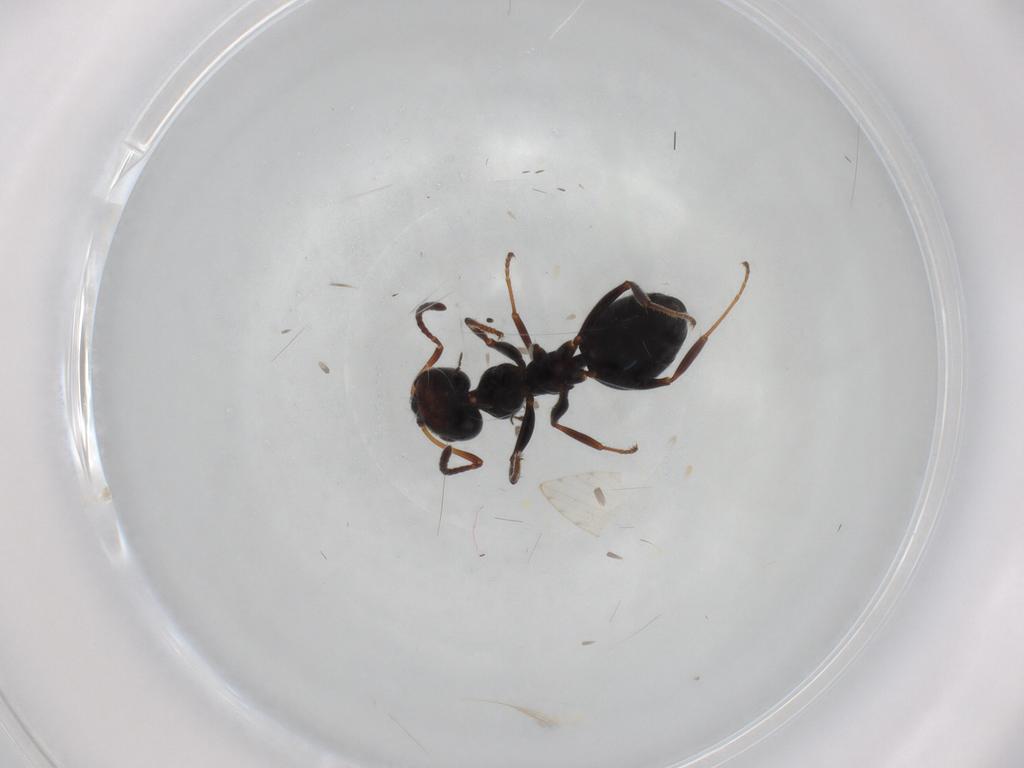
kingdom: Animalia
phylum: Arthropoda
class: Insecta
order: Hymenoptera
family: Formicidae
